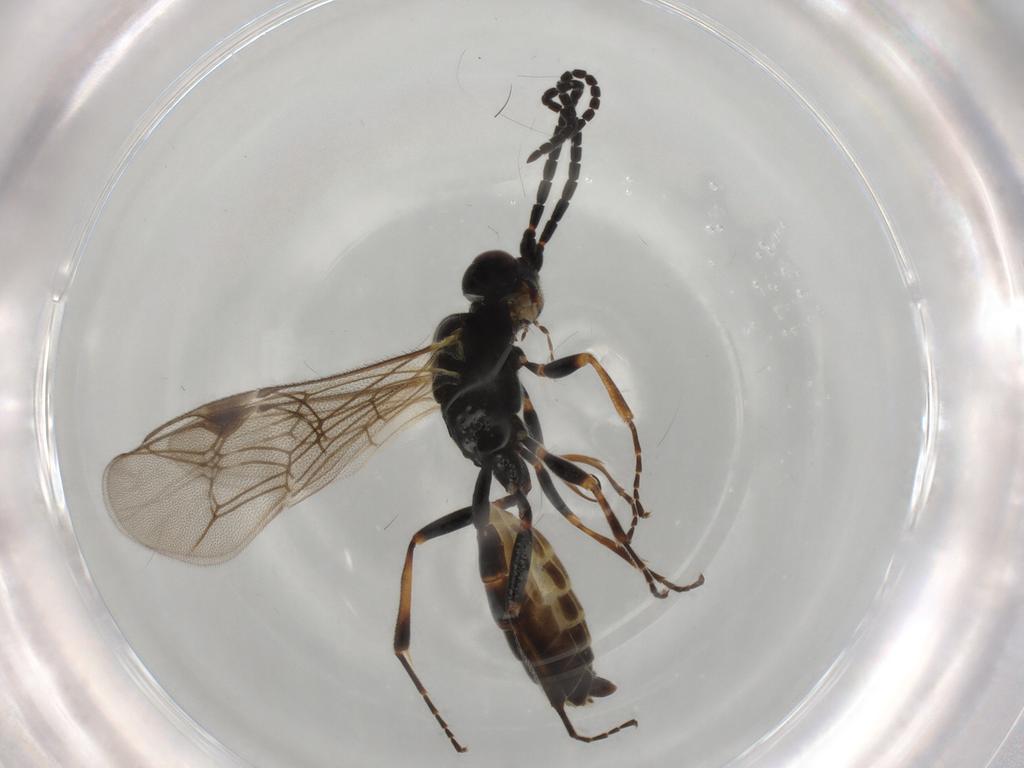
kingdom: Animalia
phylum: Arthropoda
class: Insecta
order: Hymenoptera
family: Ichneumonidae
